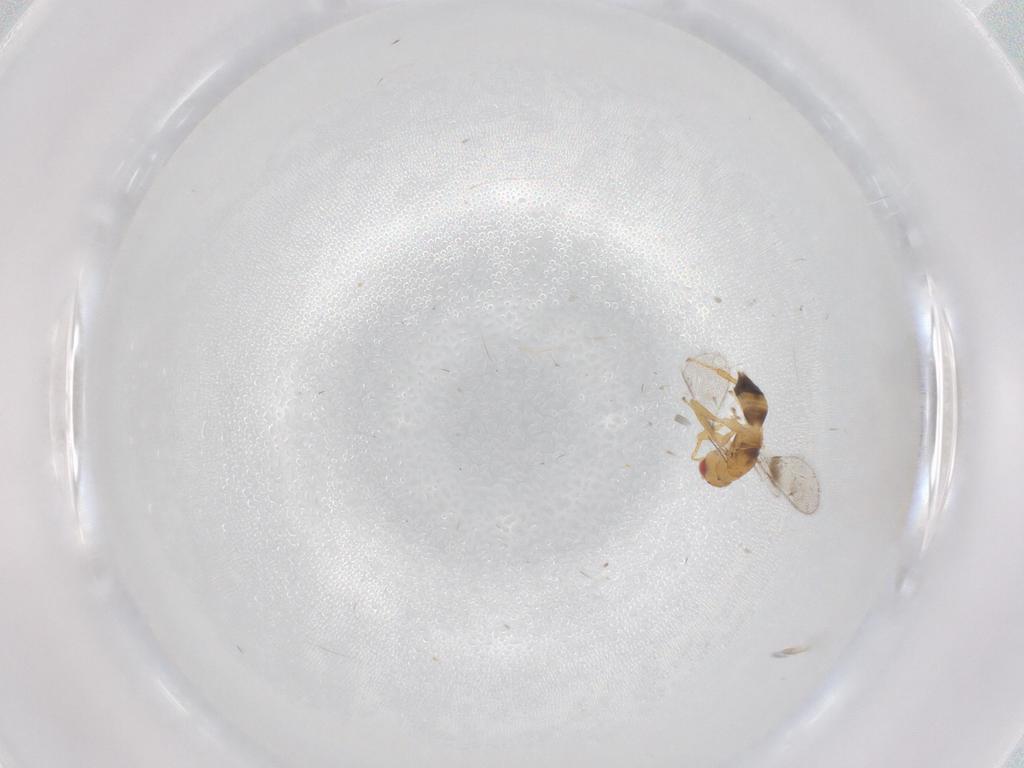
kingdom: Animalia
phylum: Arthropoda
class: Insecta
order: Hymenoptera
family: Torymidae
